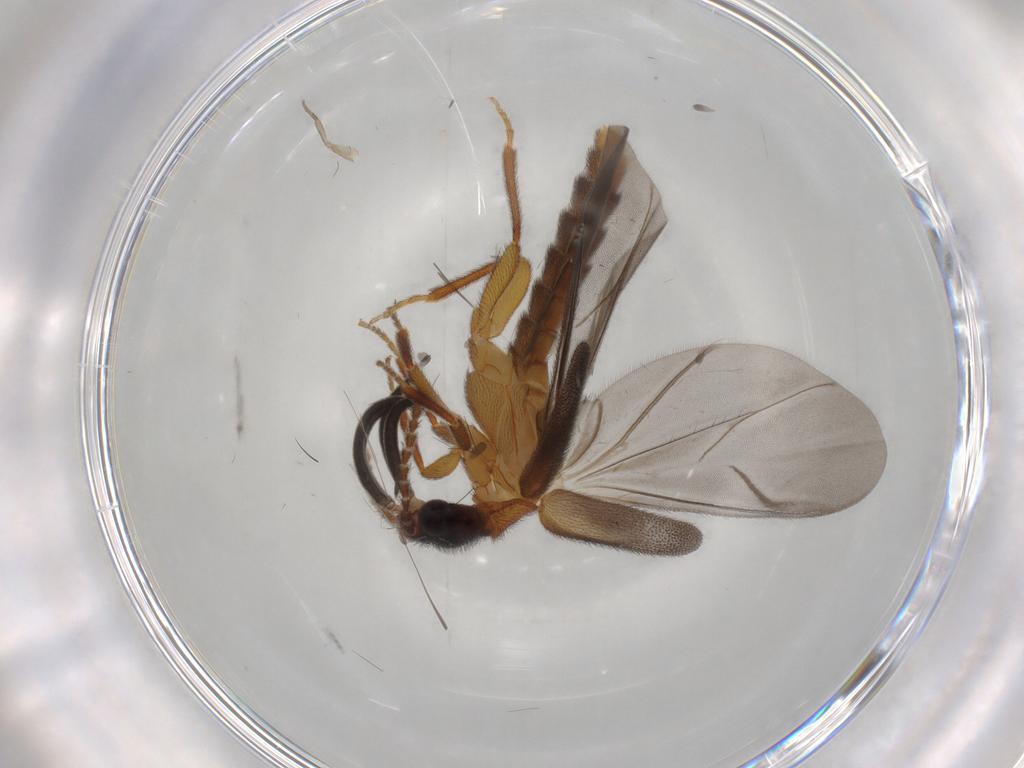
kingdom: Animalia
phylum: Arthropoda
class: Insecta
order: Coleoptera
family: Omethidae
